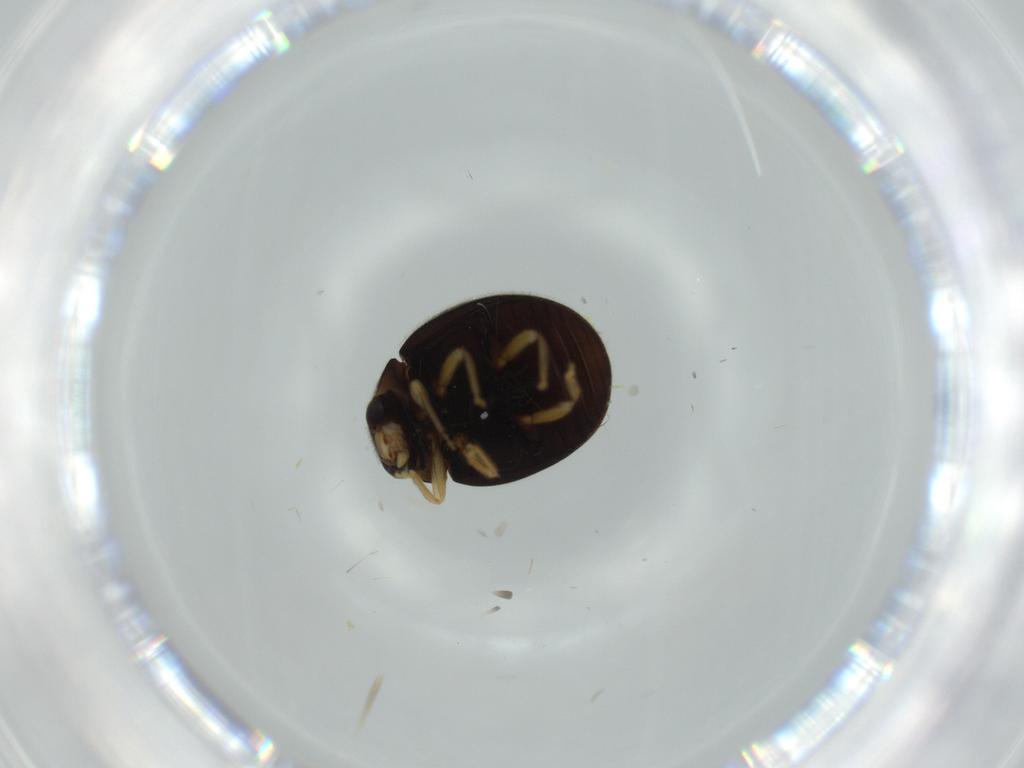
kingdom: Animalia
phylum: Arthropoda
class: Insecta
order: Coleoptera
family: Coccinellidae
